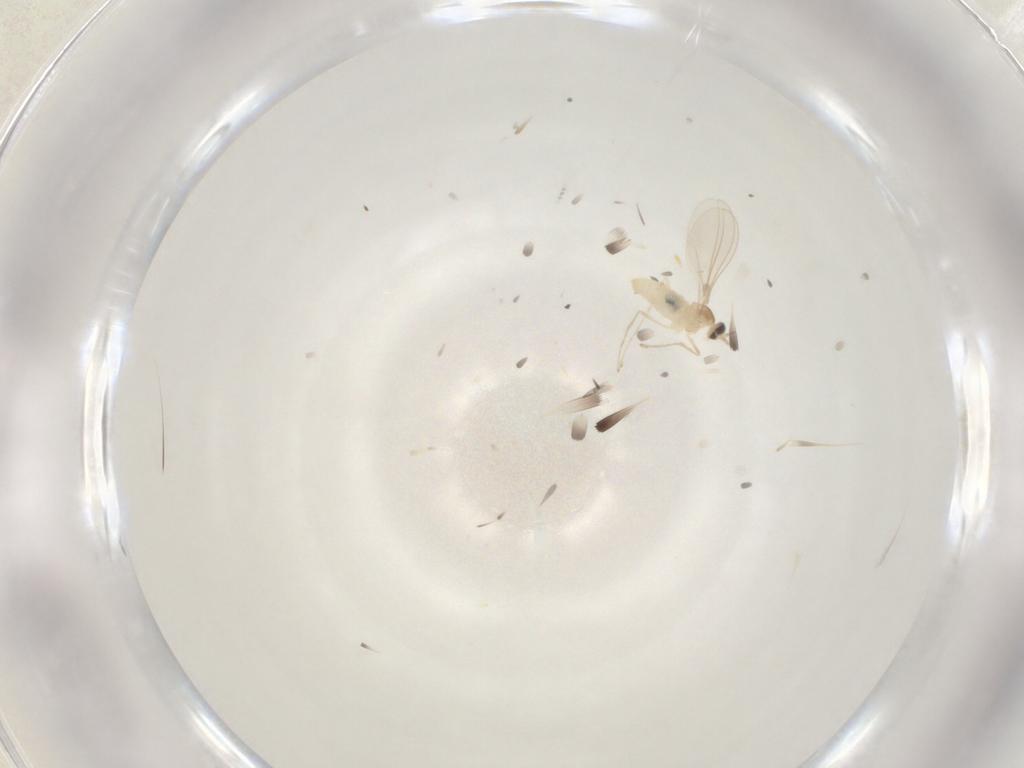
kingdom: Animalia
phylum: Arthropoda
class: Insecta
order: Diptera
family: Cecidomyiidae
